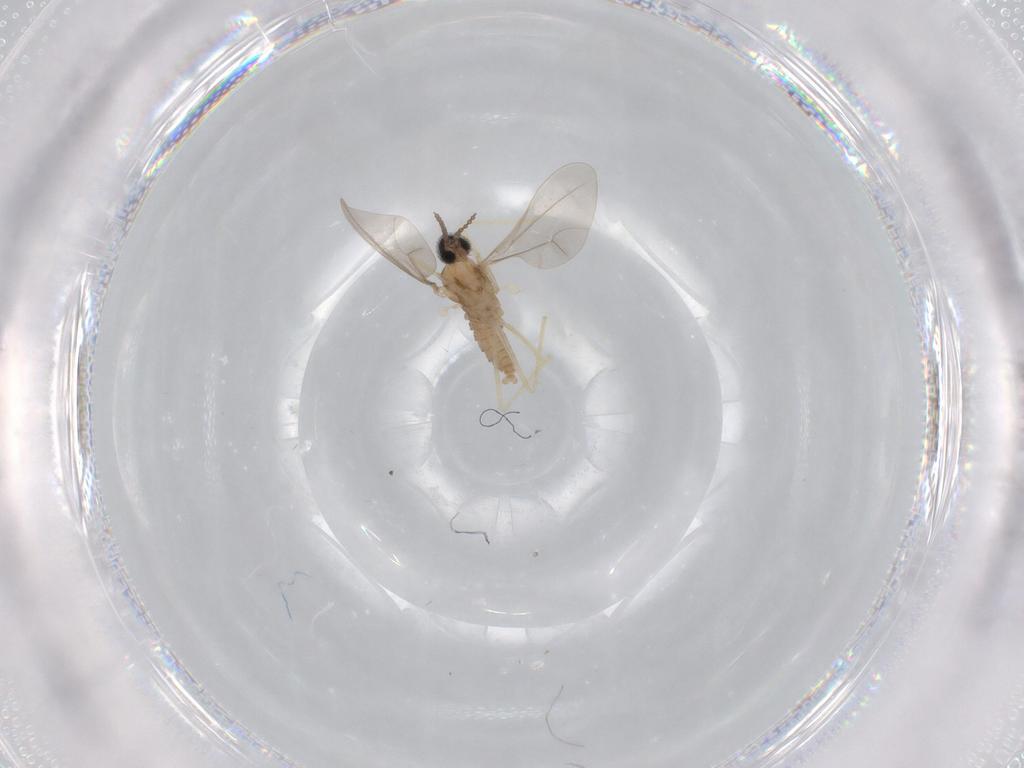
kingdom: Animalia
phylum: Arthropoda
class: Insecta
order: Diptera
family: Cecidomyiidae
